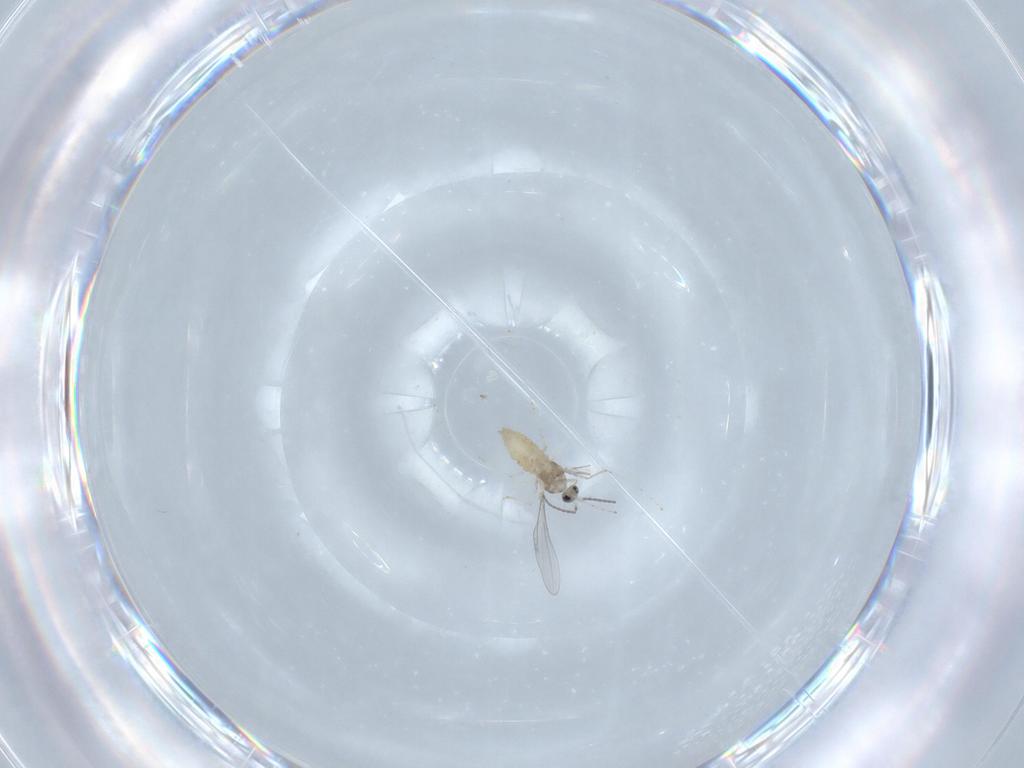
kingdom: Animalia
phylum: Arthropoda
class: Insecta
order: Diptera
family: Cecidomyiidae
